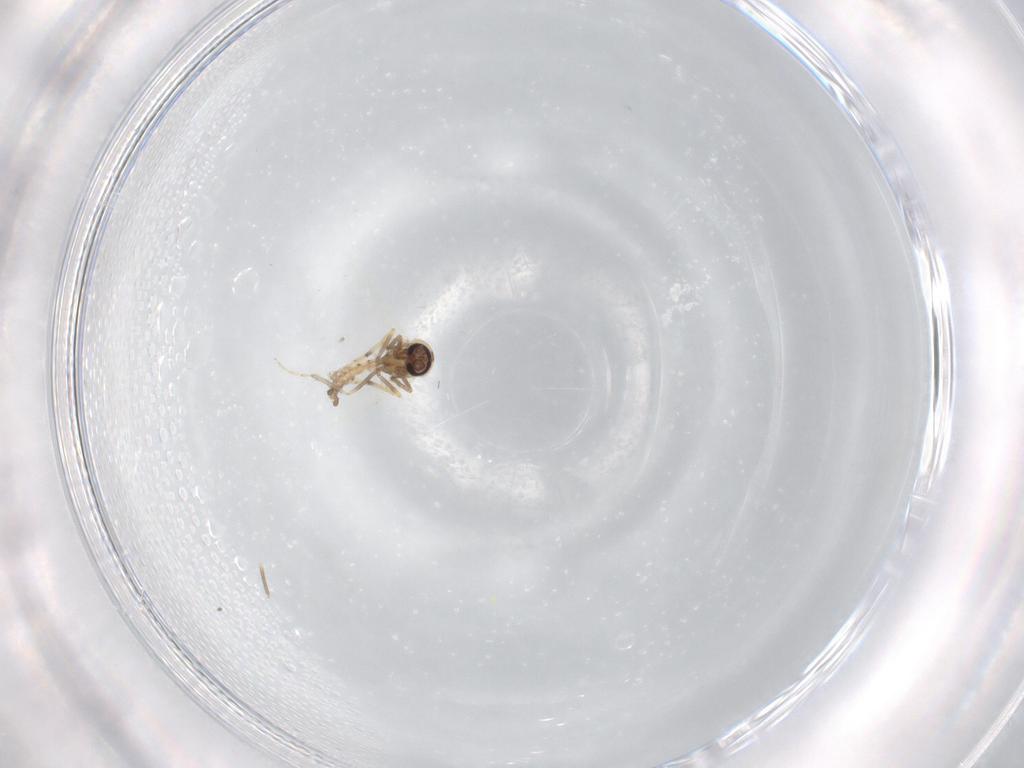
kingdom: Animalia
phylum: Arthropoda
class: Insecta
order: Diptera
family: Ceratopogonidae
